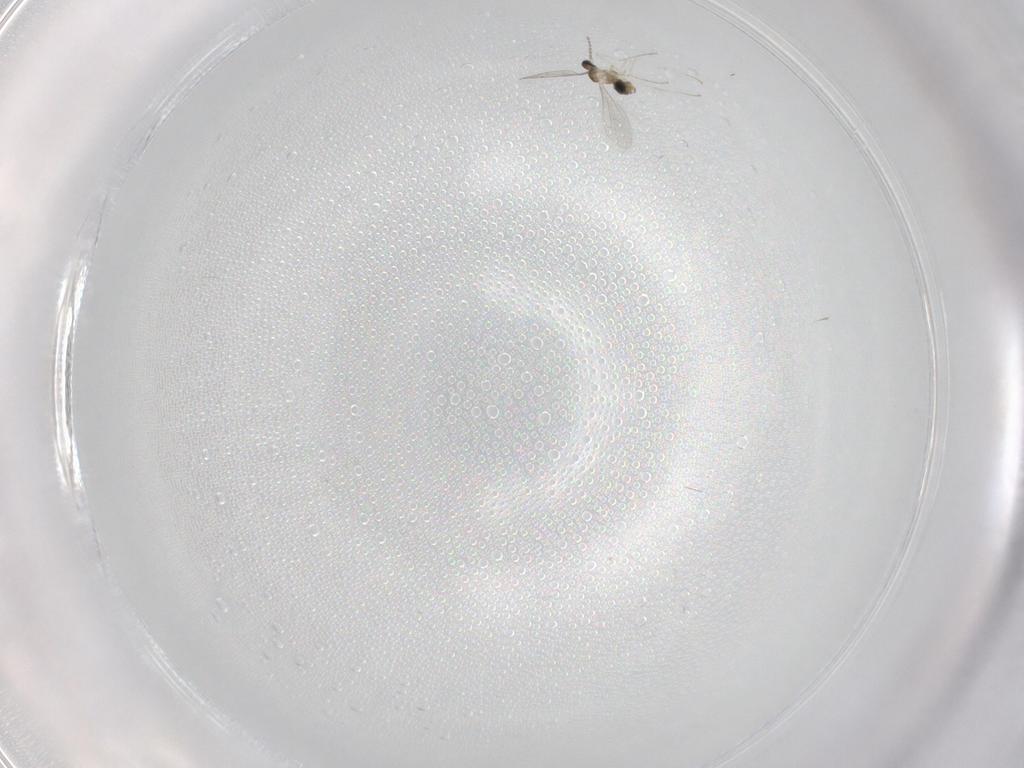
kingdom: Animalia
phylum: Arthropoda
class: Insecta
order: Diptera
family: Cecidomyiidae
